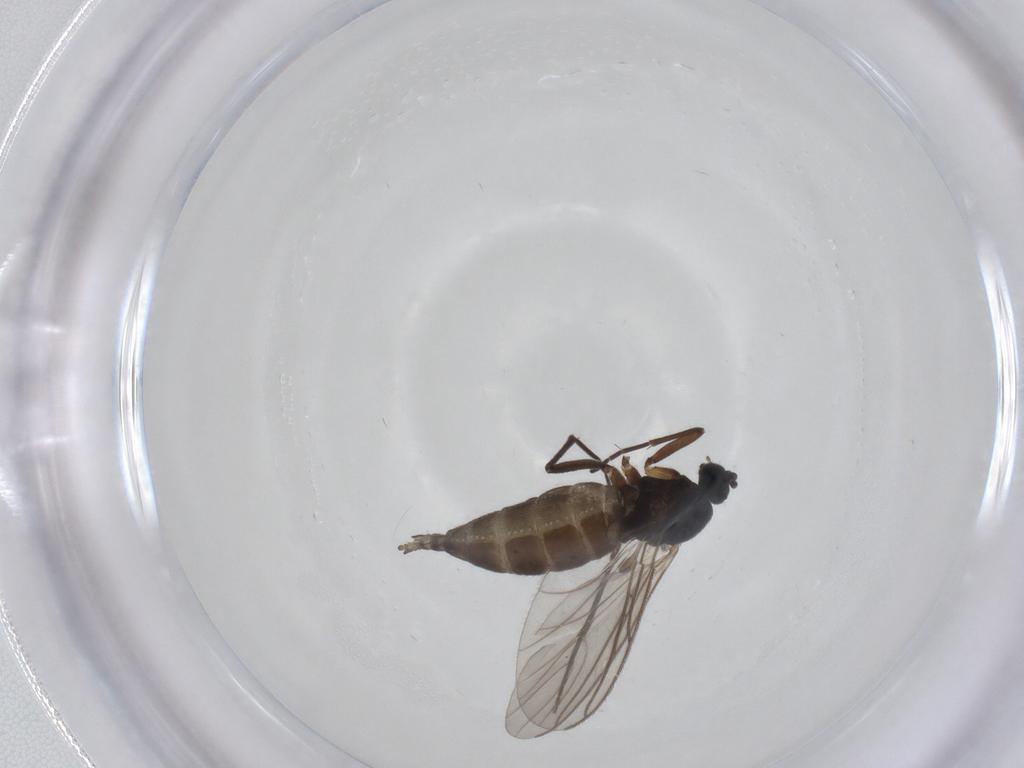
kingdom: Animalia
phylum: Arthropoda
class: Insecta
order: Diptera
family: Sciaridae
